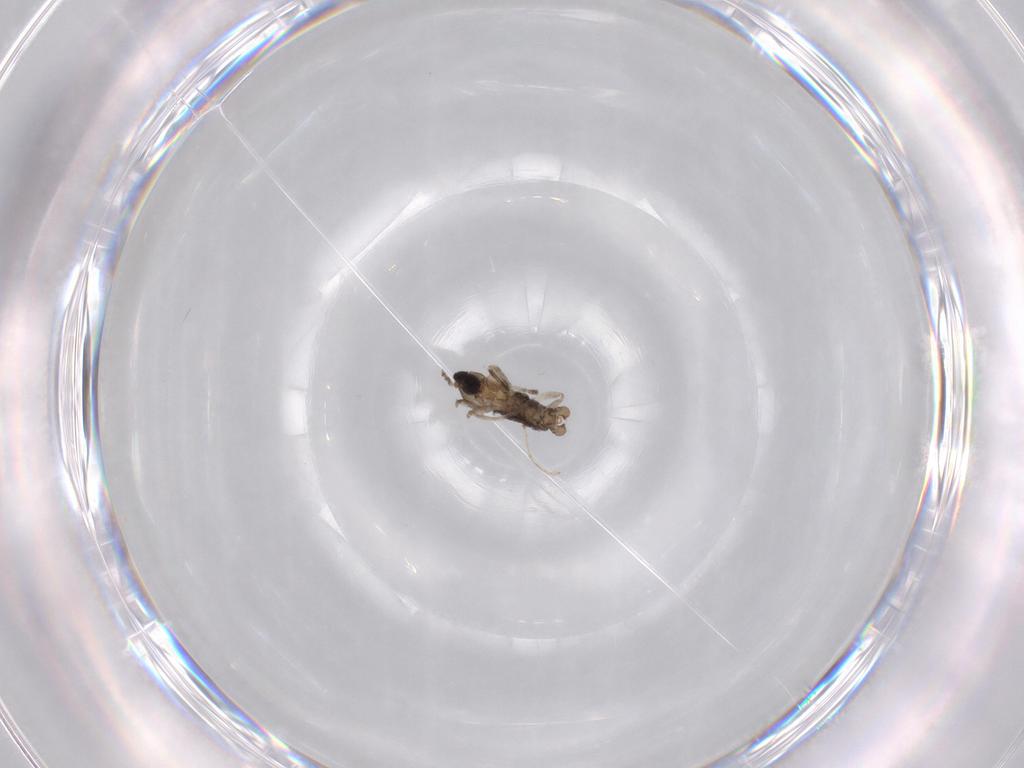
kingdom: Animalia
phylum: Arthropoda
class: Insecta
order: Diptera
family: Cecidomyiidae
